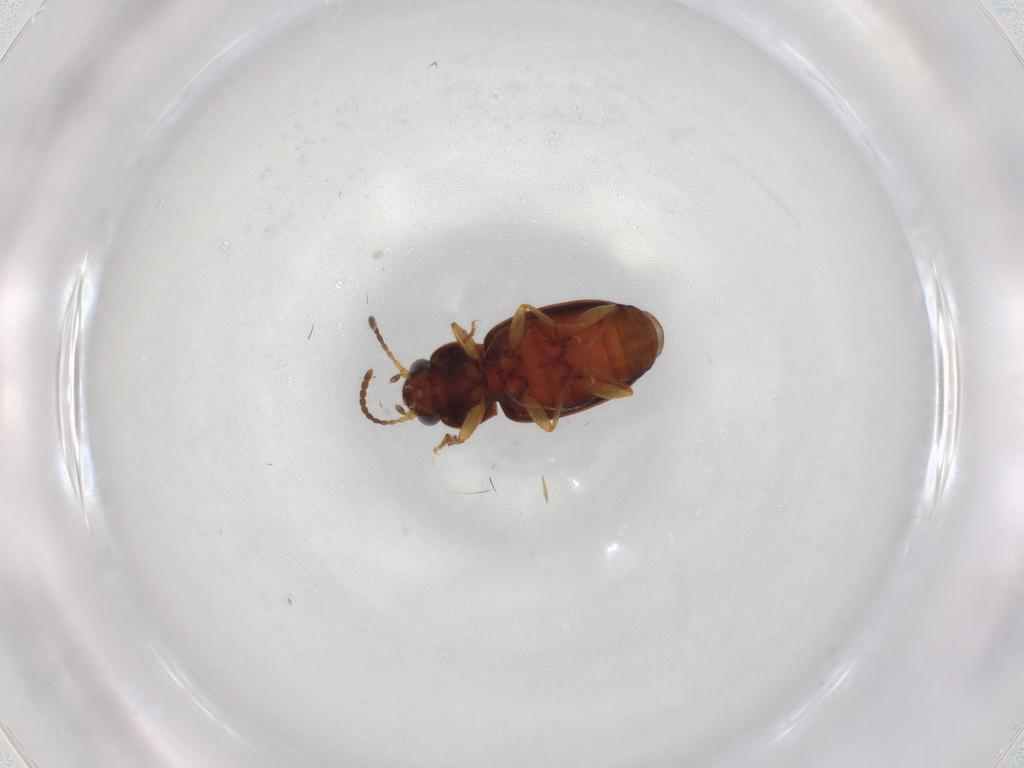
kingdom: Animalia
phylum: Arthropoda
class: Insecta
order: Coleoptera
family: Carabidae
